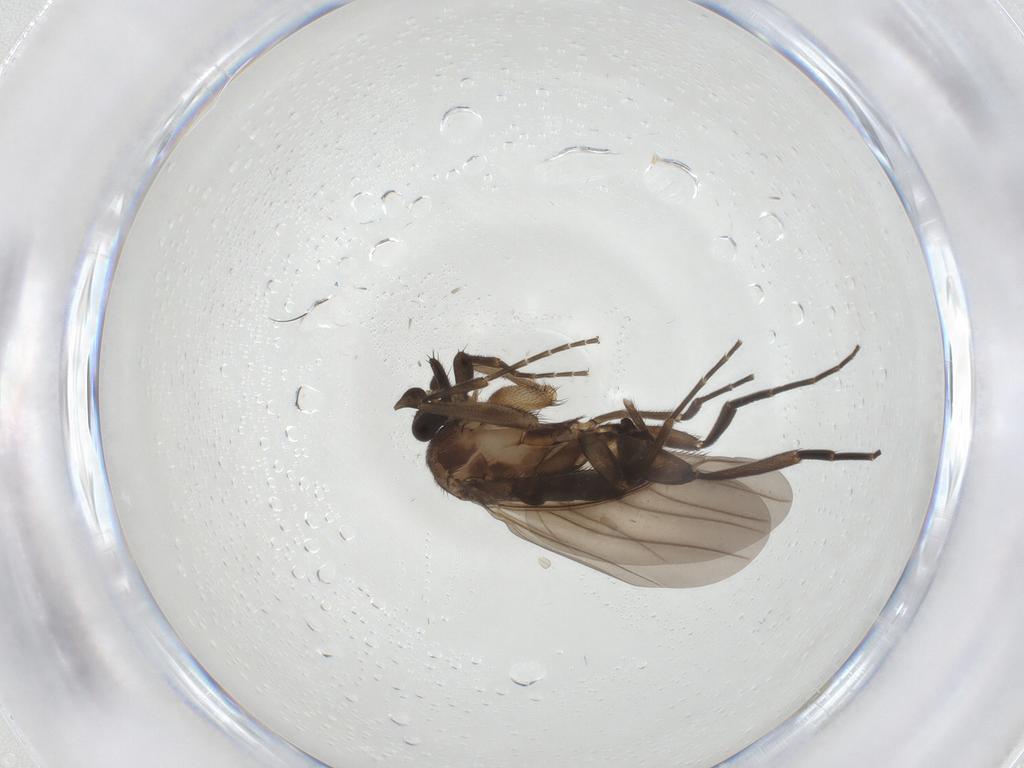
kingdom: Animalia
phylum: Arthropoda
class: Insecta
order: Diptera
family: Phoridae
